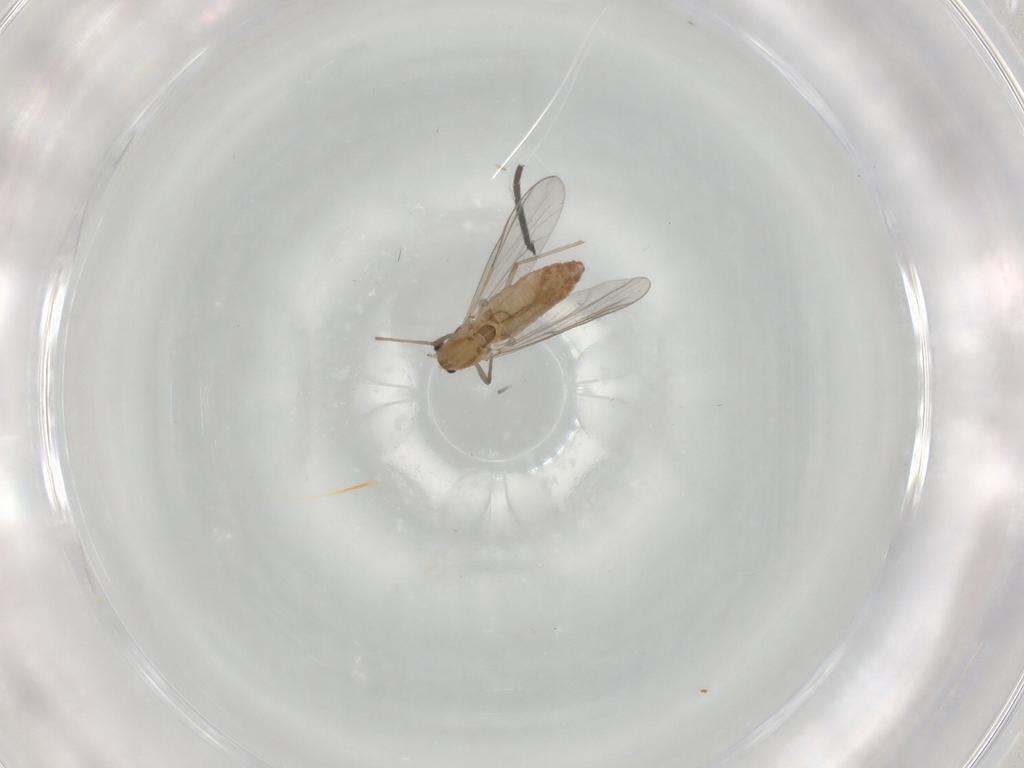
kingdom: Animalia
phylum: Arthropoda
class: Insecta
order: Diptera
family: Chironomidae
